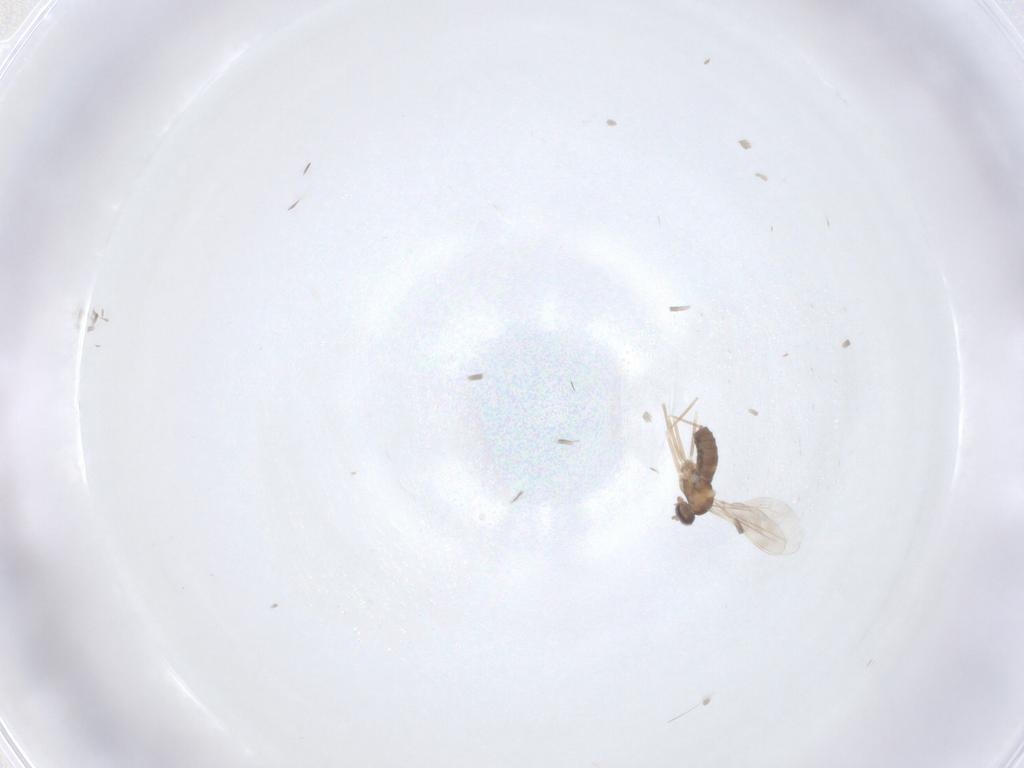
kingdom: Animalia
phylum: Arthropoda
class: Insecta
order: Diptera
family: Cecidomyiidae
